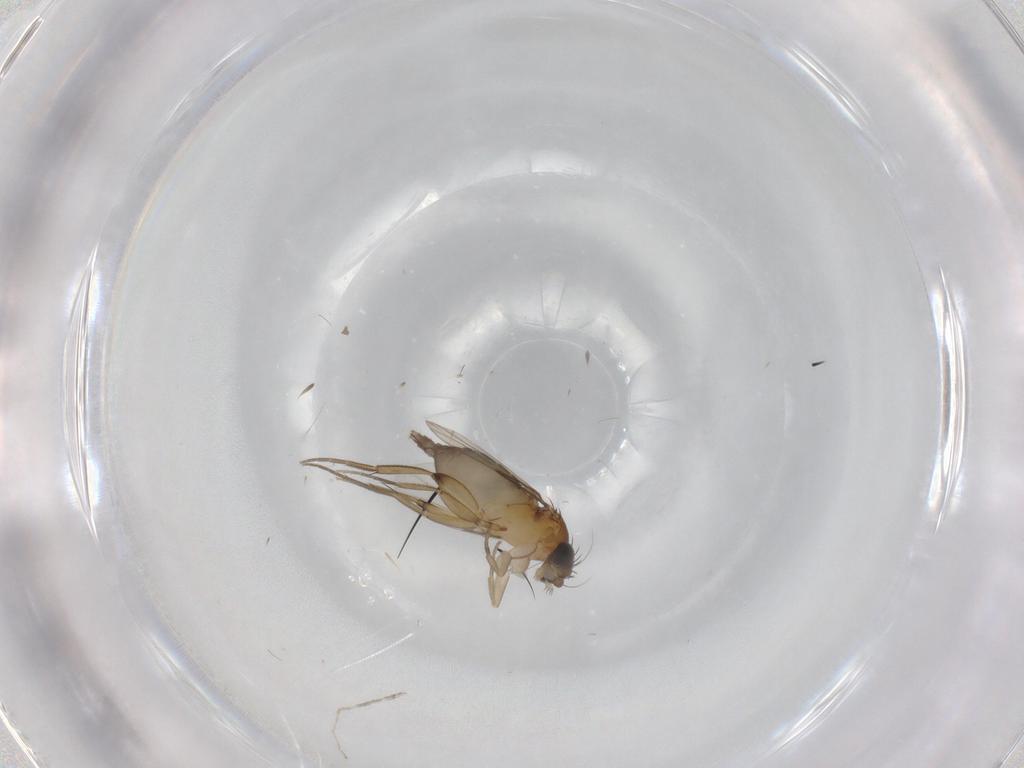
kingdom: Animalia
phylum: Arthropoda
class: Insecta
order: Diptera
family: Phoridae
